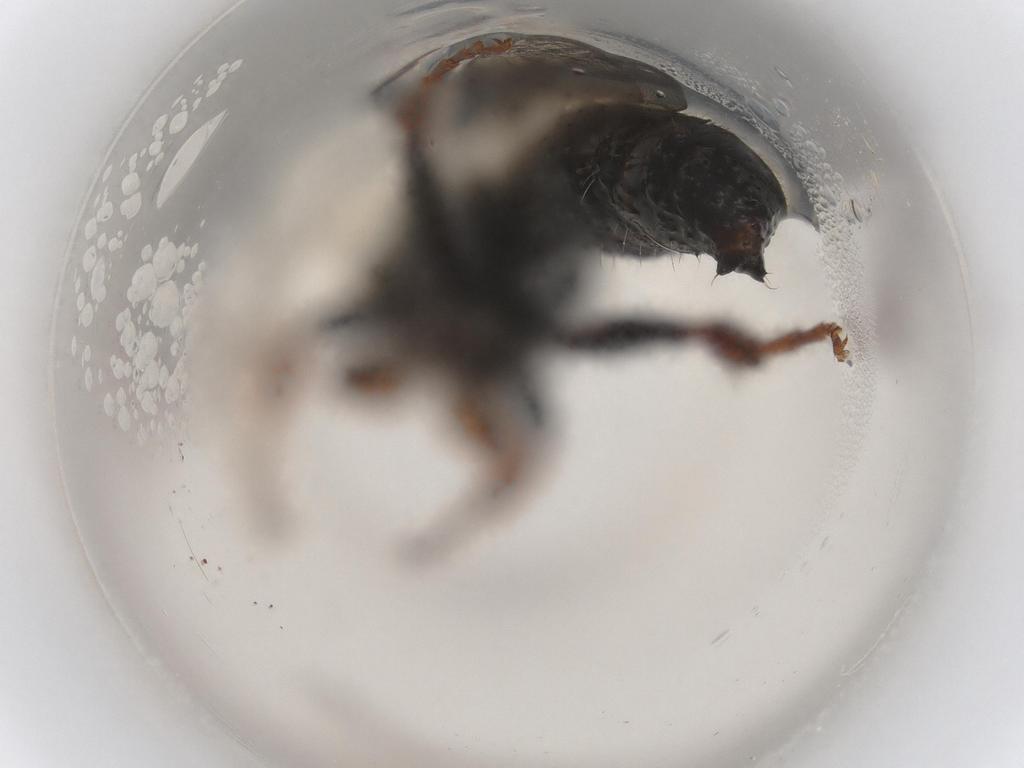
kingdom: Animalia
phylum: Arthropoda
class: Insecta
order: Hymenoptera
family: Tiphiidae
